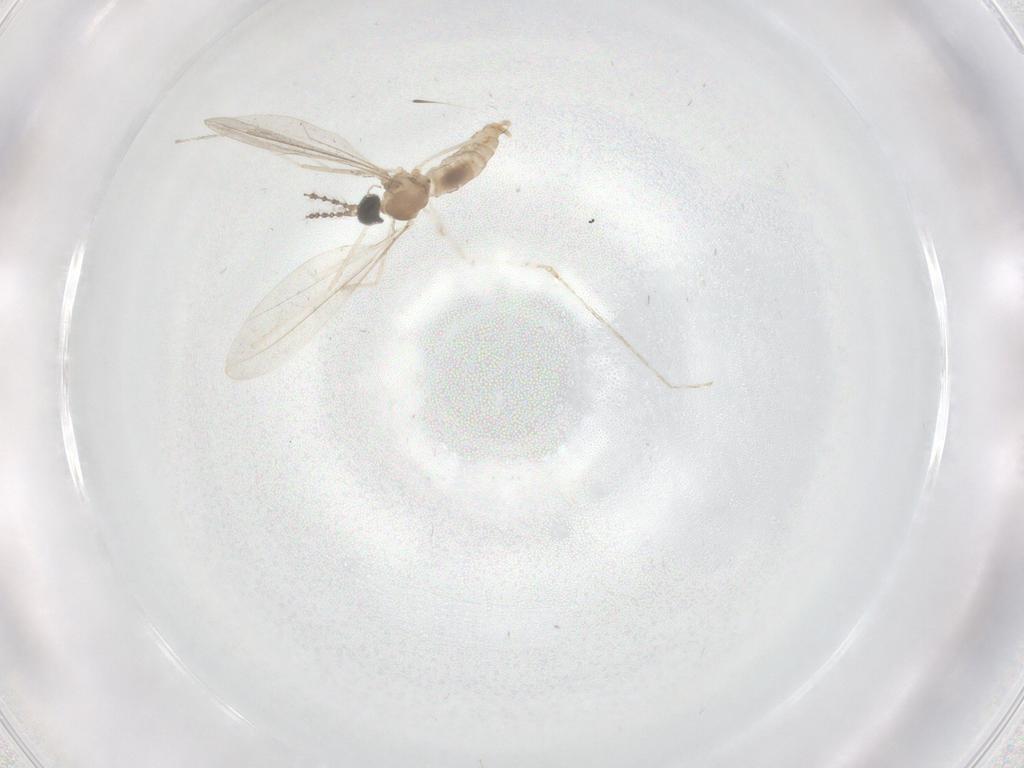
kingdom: Animalia
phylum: Arthropoda
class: Insecta
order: Diptera
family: Cecidomyiidae
